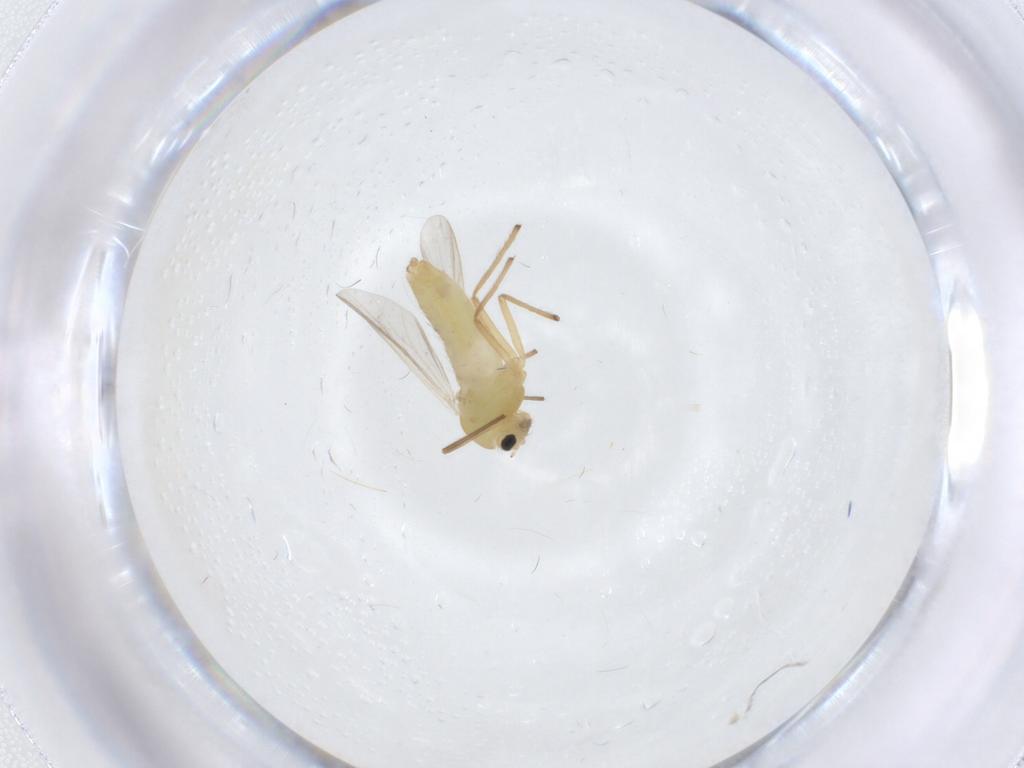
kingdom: Animalia
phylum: Arthropoda
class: Insecta
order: Diptera
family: Chironomidae
